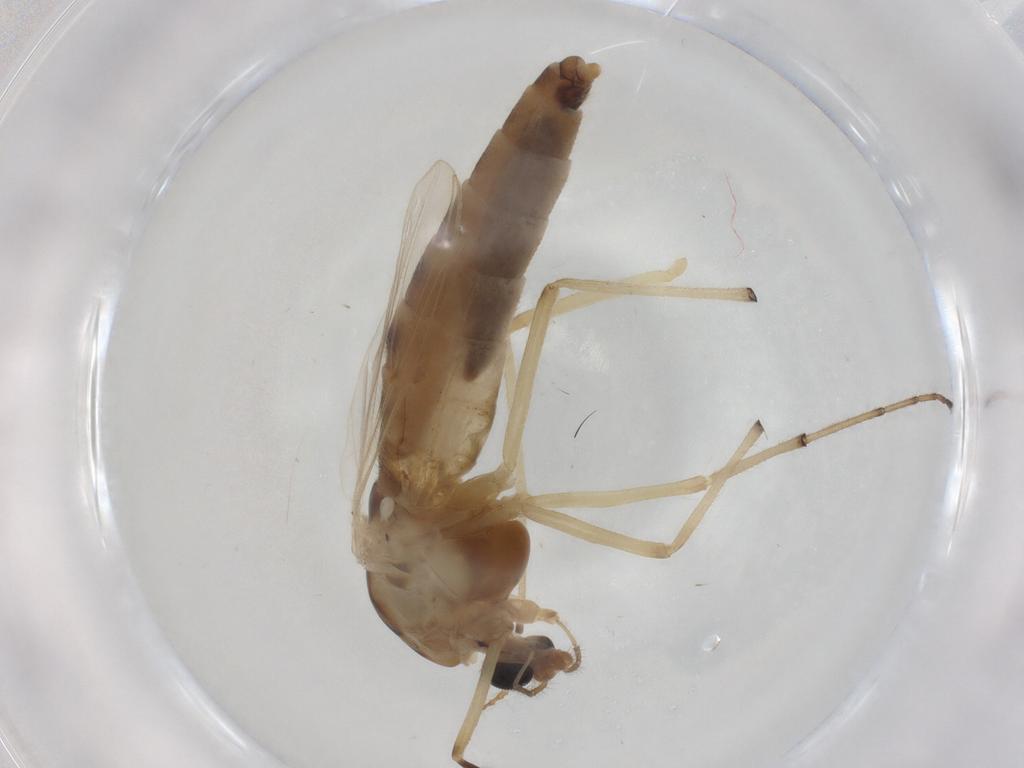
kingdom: Animalia
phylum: Arthropoda
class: Insecta
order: Diptera
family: Chironomidae
